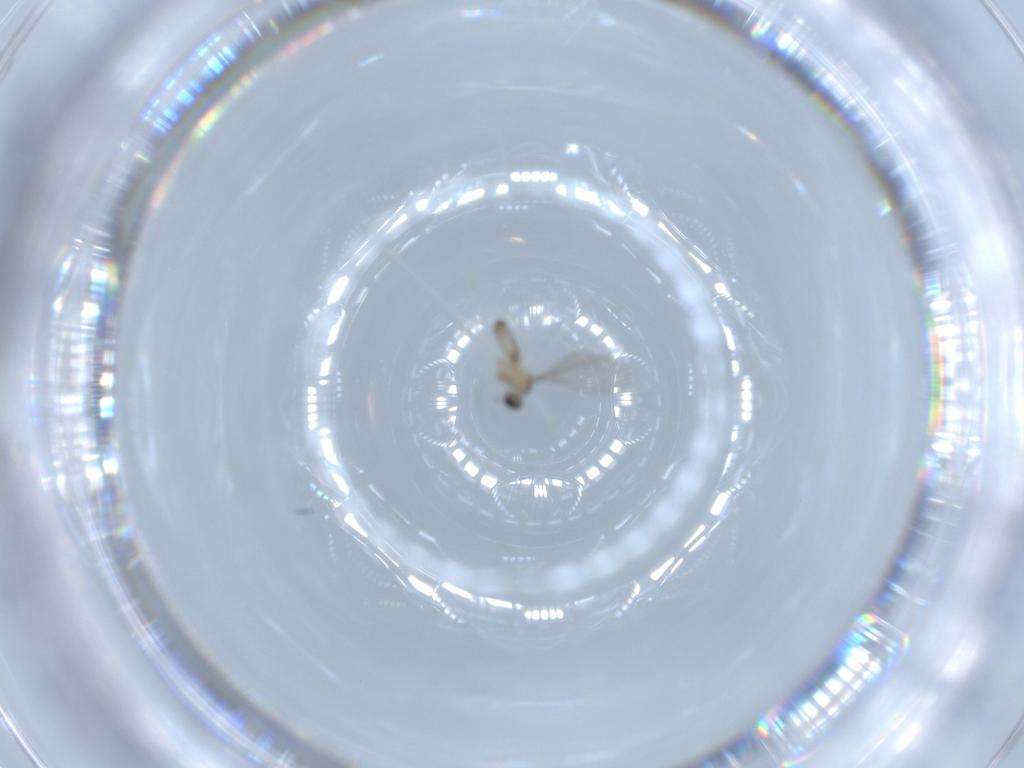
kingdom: Animalia
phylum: Arthropoda
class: Insecta
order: Diptera
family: Cecidomyiidae
